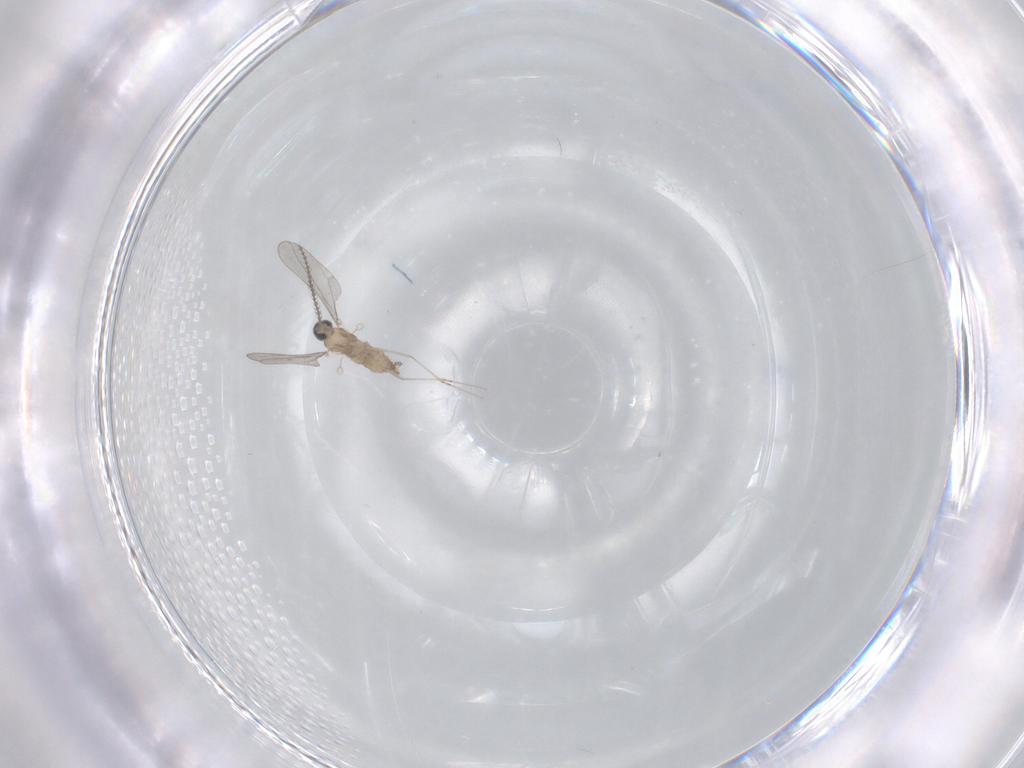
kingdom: Animalia
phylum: Arthropoda
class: Insecta
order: Diptera
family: Cecidomyiidae
